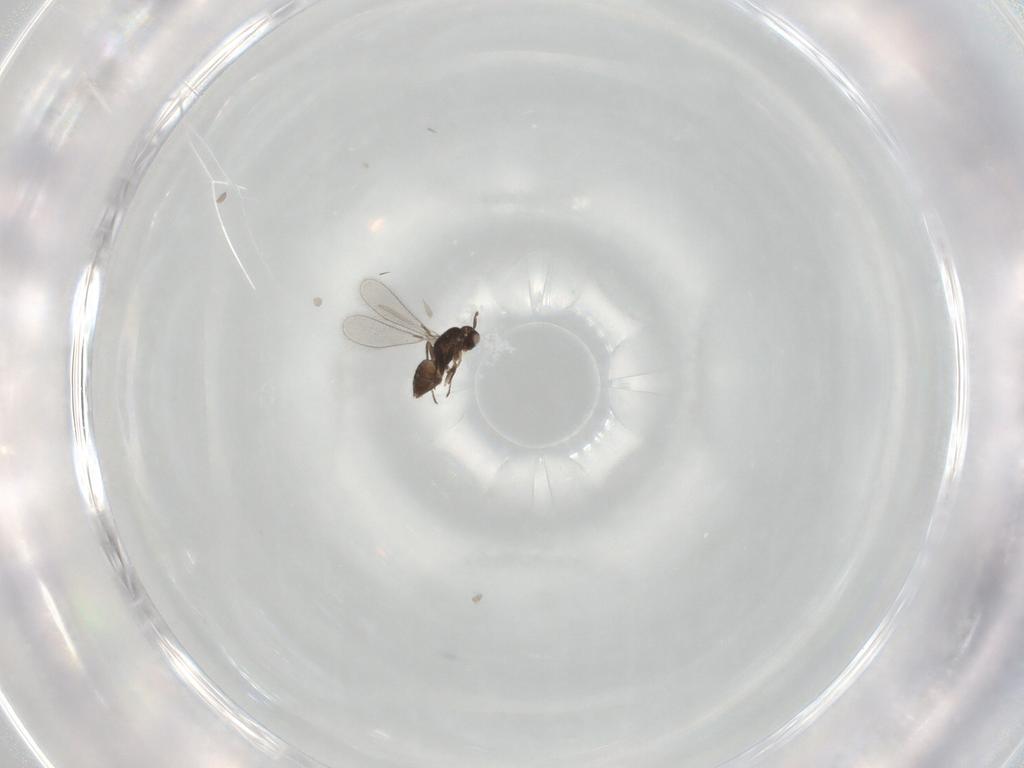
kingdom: Animalia
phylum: Arthropoda
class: Insecta
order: Hymenoptera
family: Mymaridae
